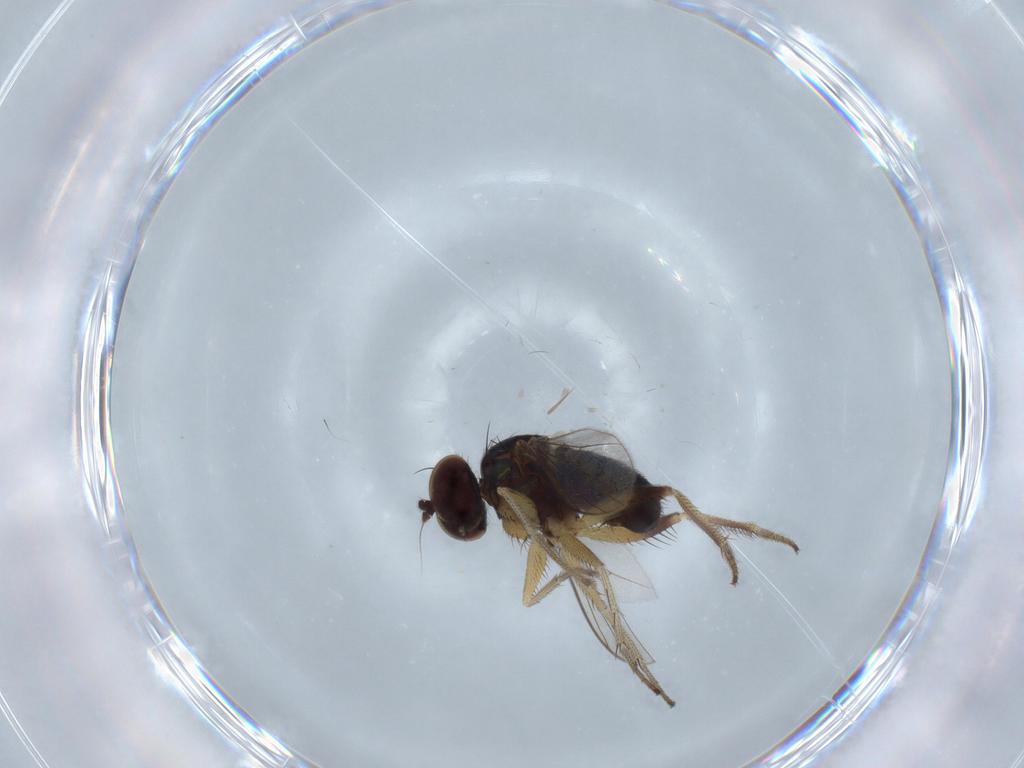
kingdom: Animalia
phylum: Arthropoda
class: Insecta
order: Diptera
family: Dolichopodidae
